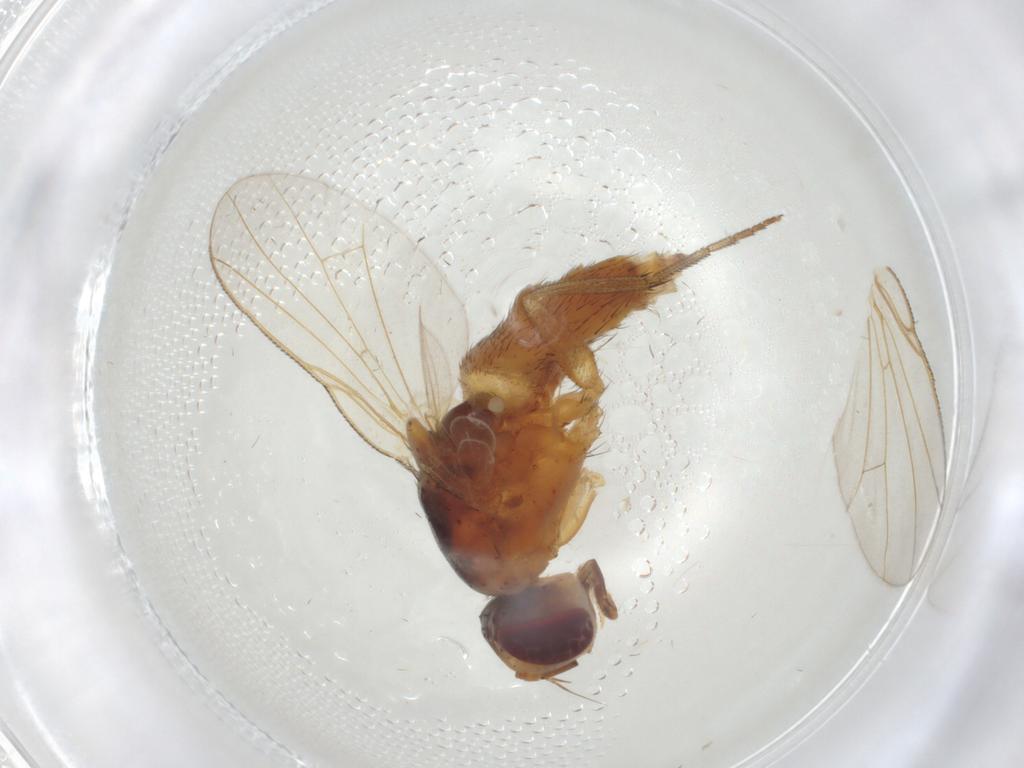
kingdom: Animalia
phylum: Arthropoda
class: Insecta
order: Diptera
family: Muscidae
